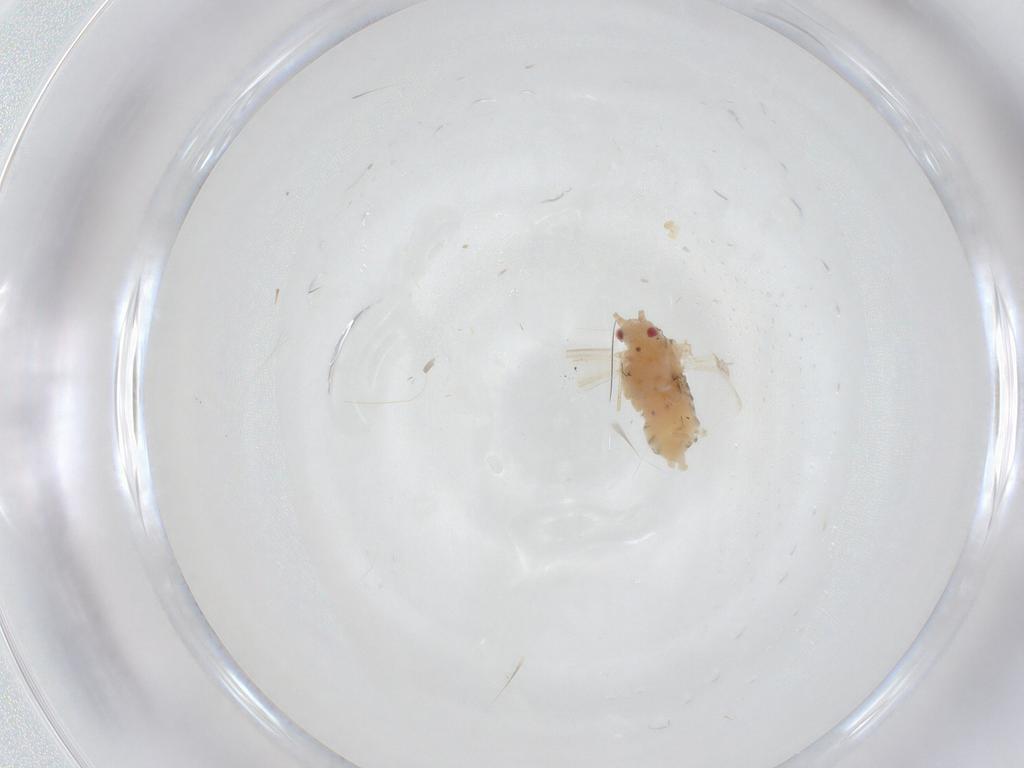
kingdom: Animalia
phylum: Arthropoda
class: Insecta
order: Hemiptera
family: Aphididae
